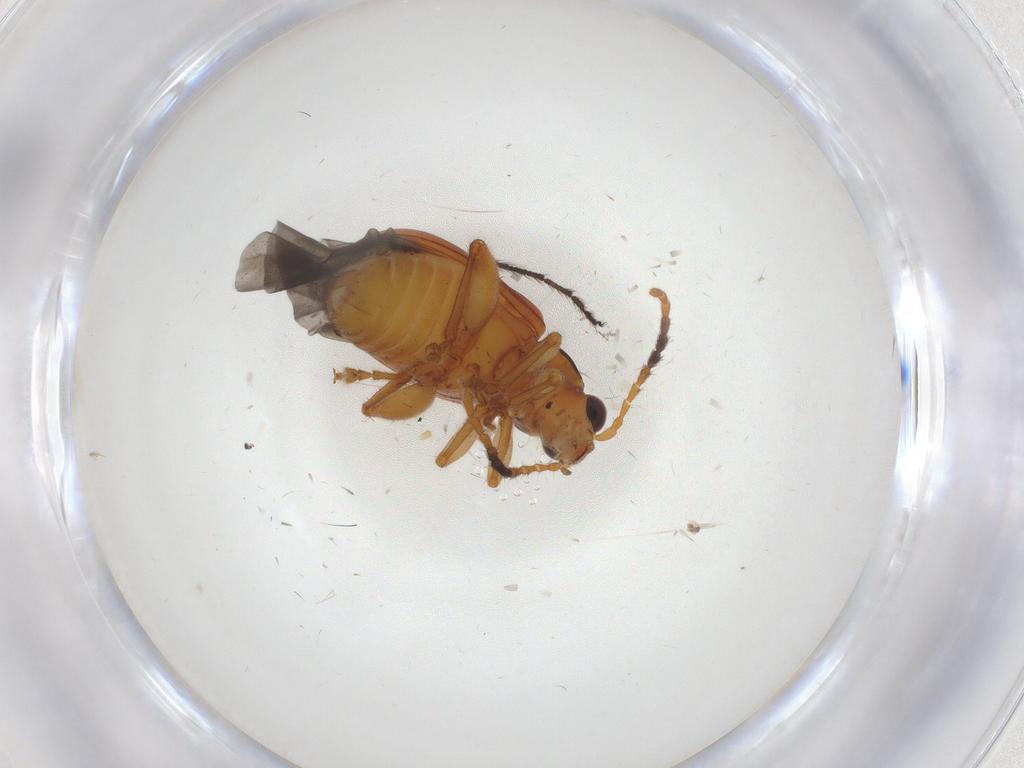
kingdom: Animalia
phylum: Arthropoda
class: Insecta
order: Coleoptera
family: Chrysomelidae
